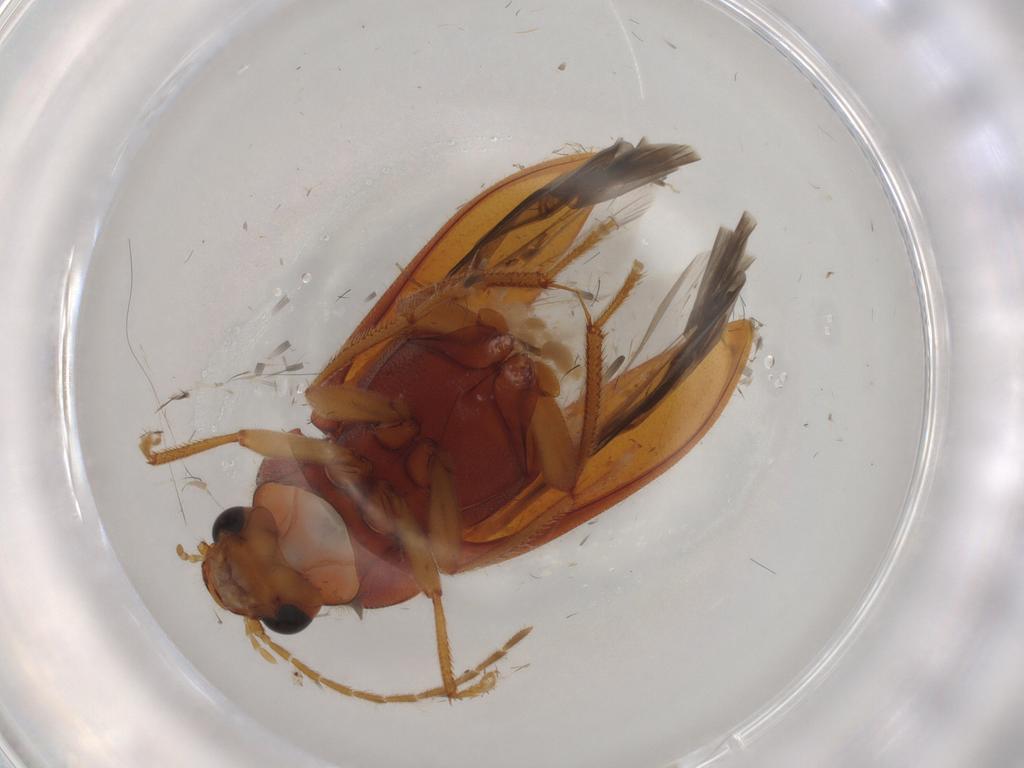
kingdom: Animalia
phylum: Arthropoda
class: Insecta
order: Coleoptera
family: Ptilodactylidae
